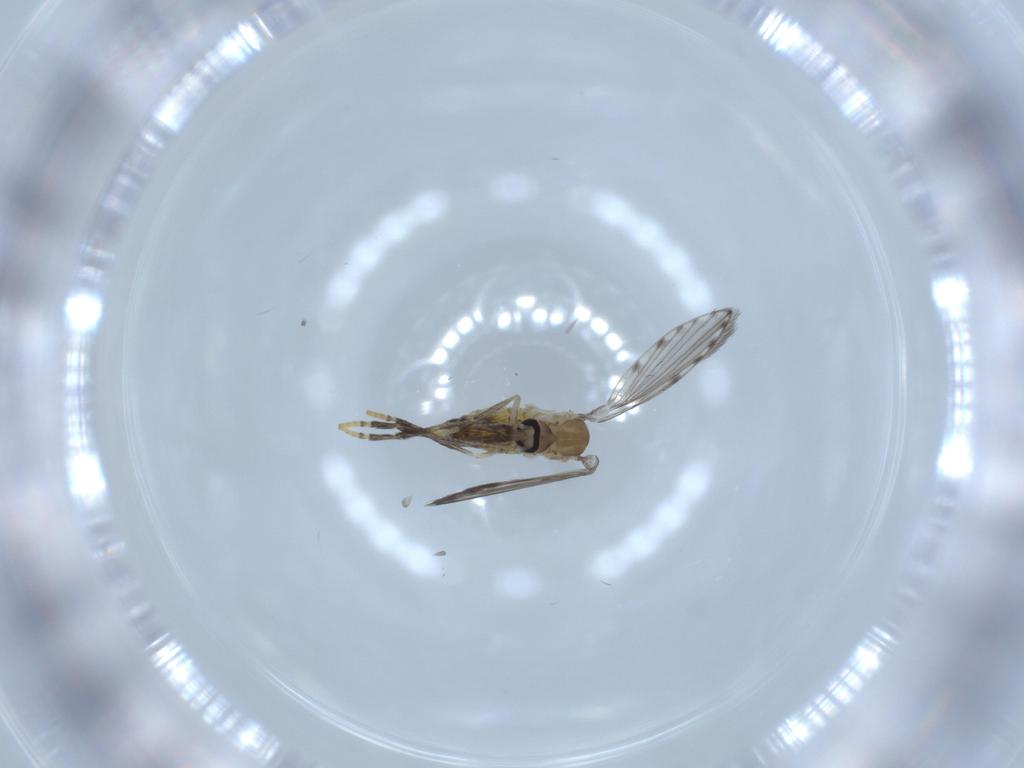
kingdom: Animalia
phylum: Arthropoda
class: Insecta
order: Diptera
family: Psychodidae
